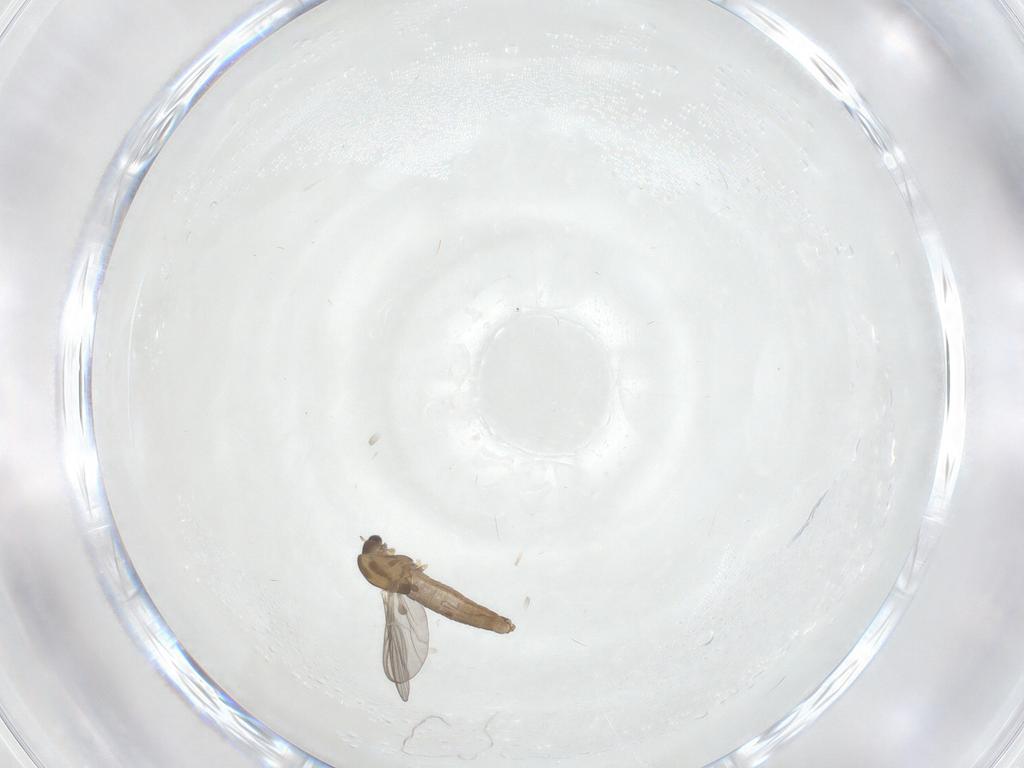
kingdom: Animalia
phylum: Arthropoda
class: Insecta
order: Diptera
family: Chironomidae
